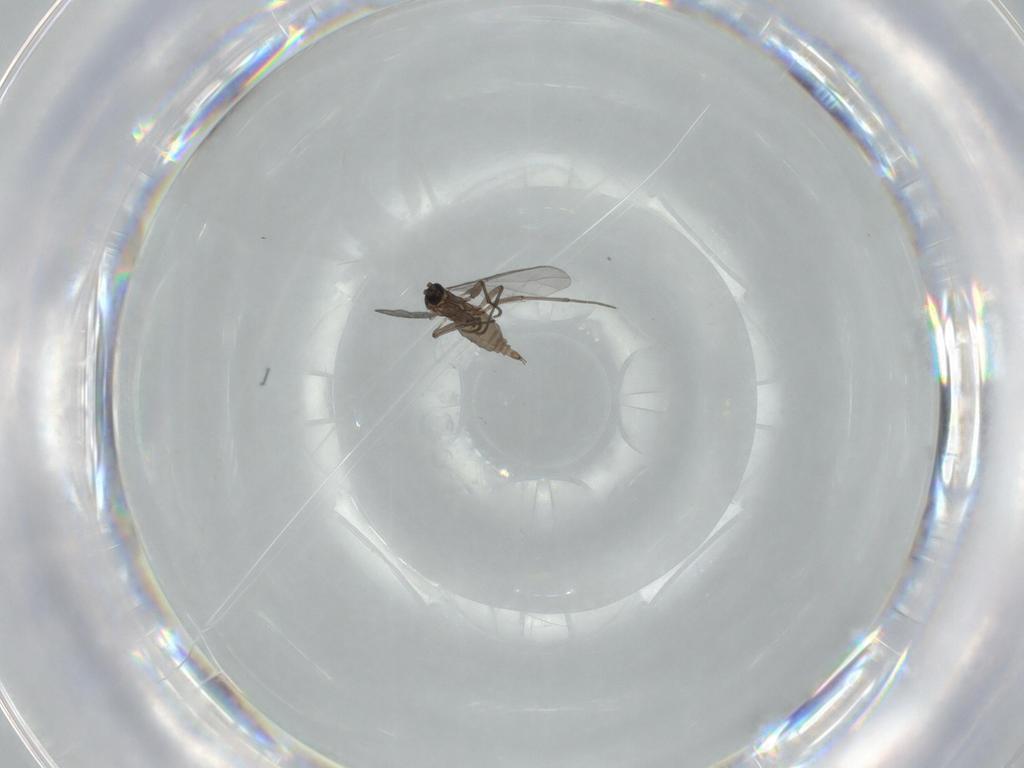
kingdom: Animalia
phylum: Arthropoda
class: Insecta
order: Diptera
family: Sciaridae
